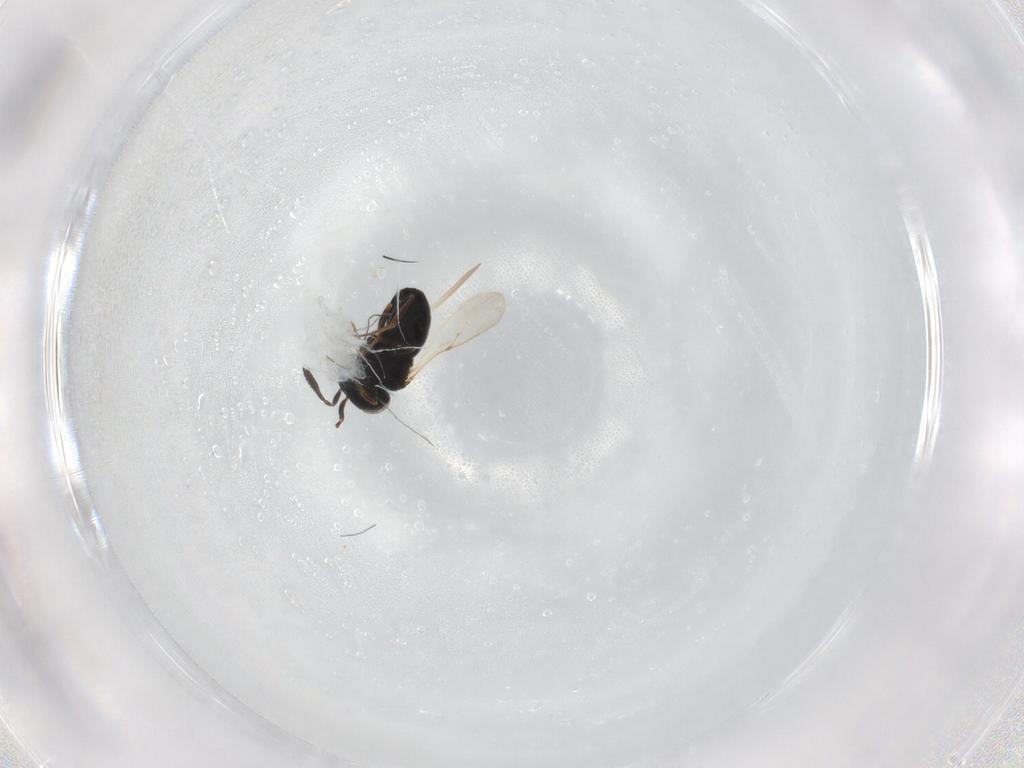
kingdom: Animalia
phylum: Arthropoda
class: Insecta
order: Hymenoptera
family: Scelionidae
